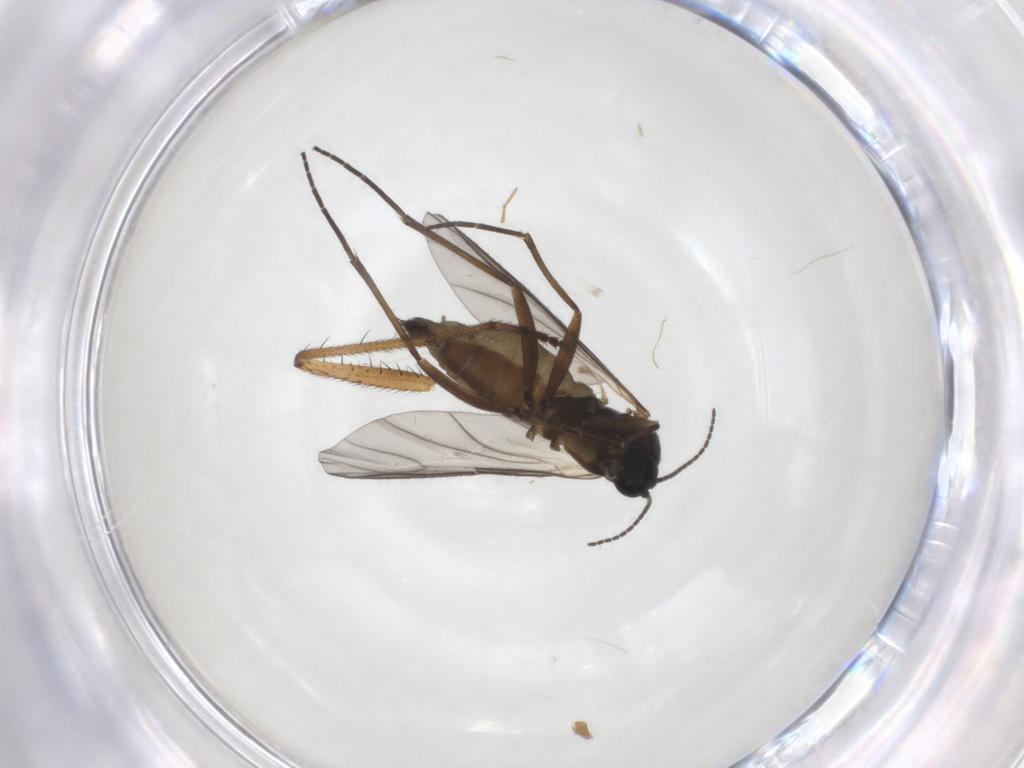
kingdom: Animalia
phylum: Arthropoda
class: Insecta
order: Diptera
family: Sciaridae
